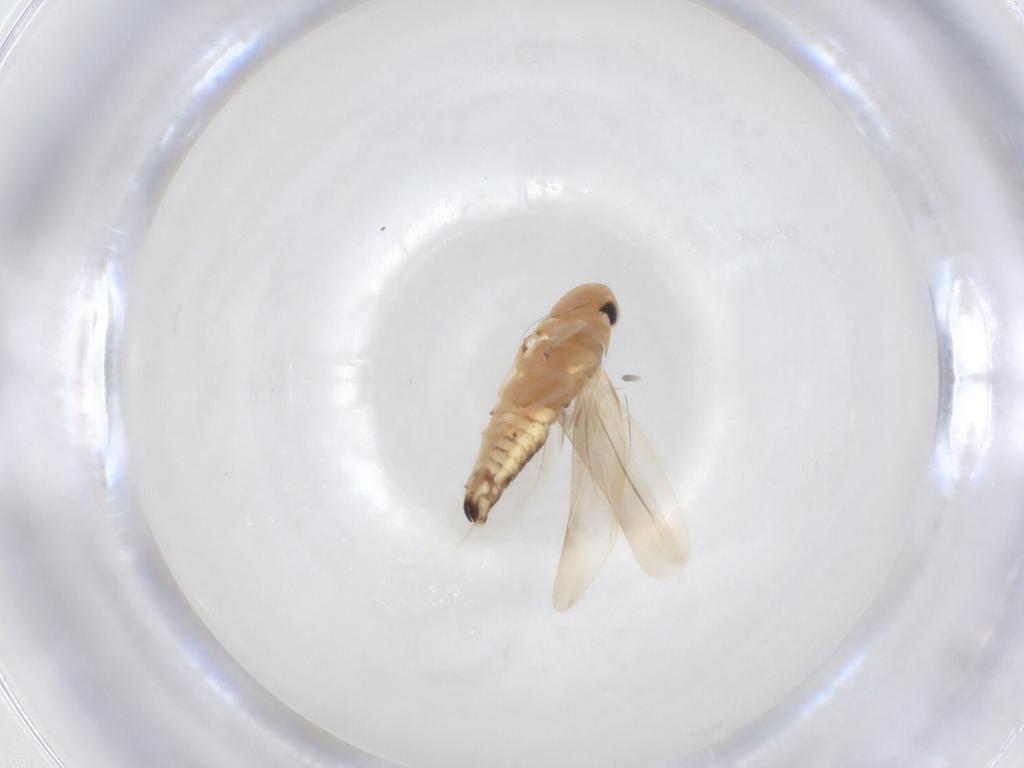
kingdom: Animalia
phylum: Arthropoda
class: Insecta
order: Hemiptera
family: Cicadellidae
